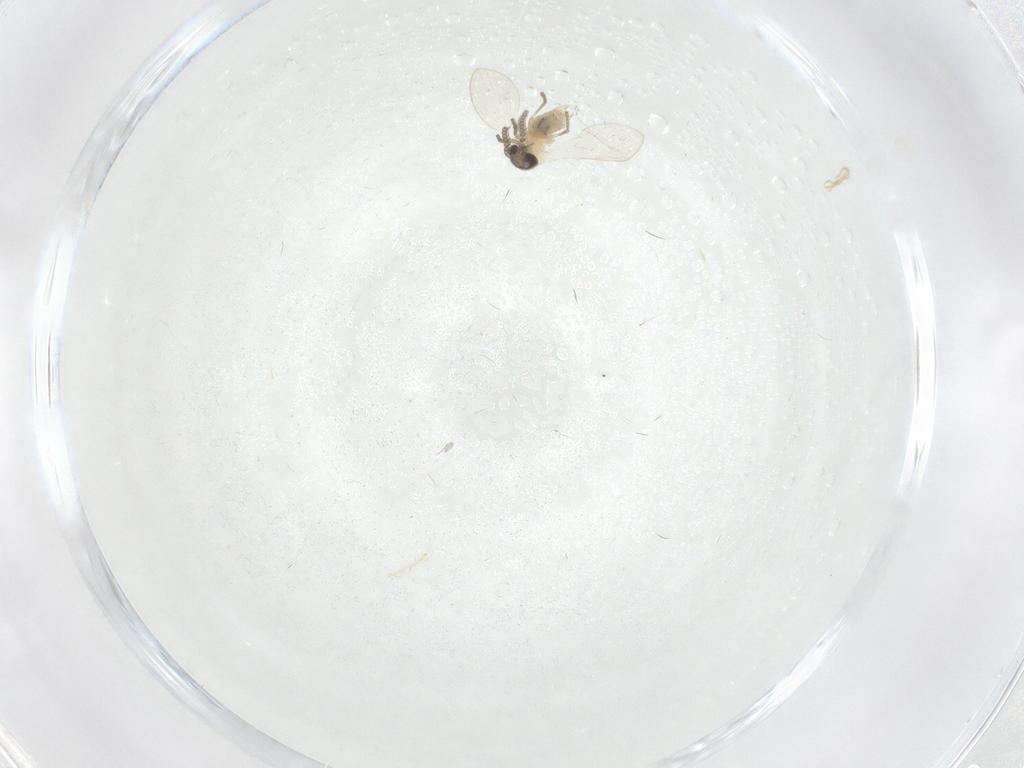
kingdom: Animalia
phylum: Arthropoda
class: Insecta
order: Diptera
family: Psychodidae
